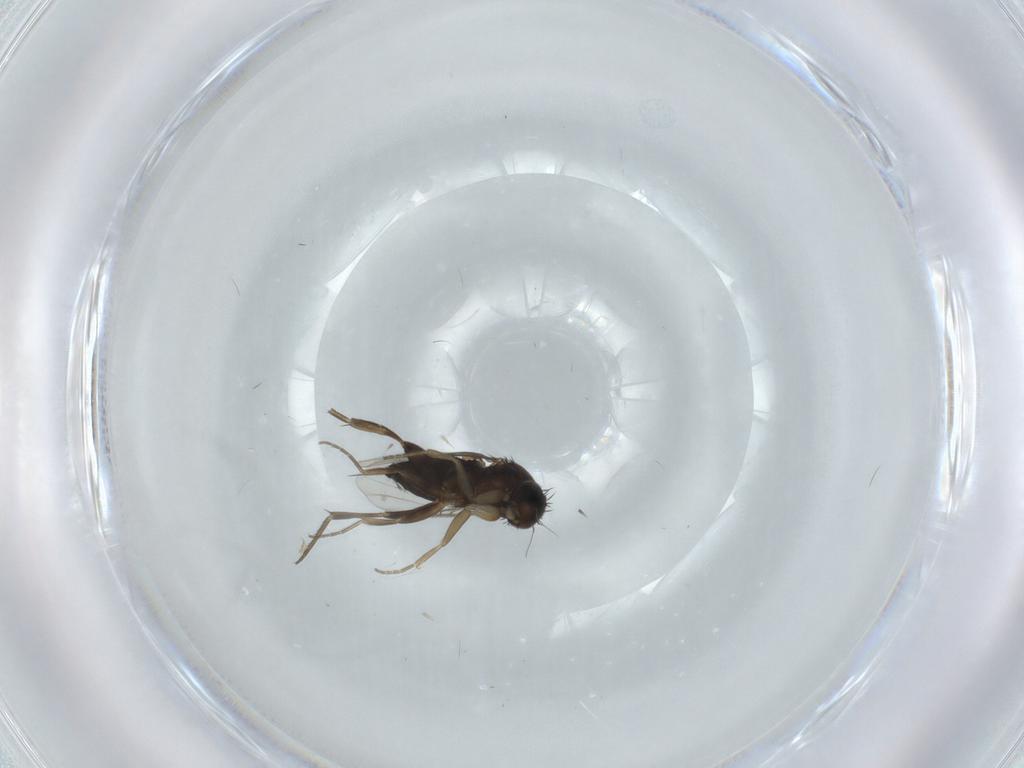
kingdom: Animalia
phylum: Arthropoda
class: Insecta
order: Diptera
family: Phoridae
